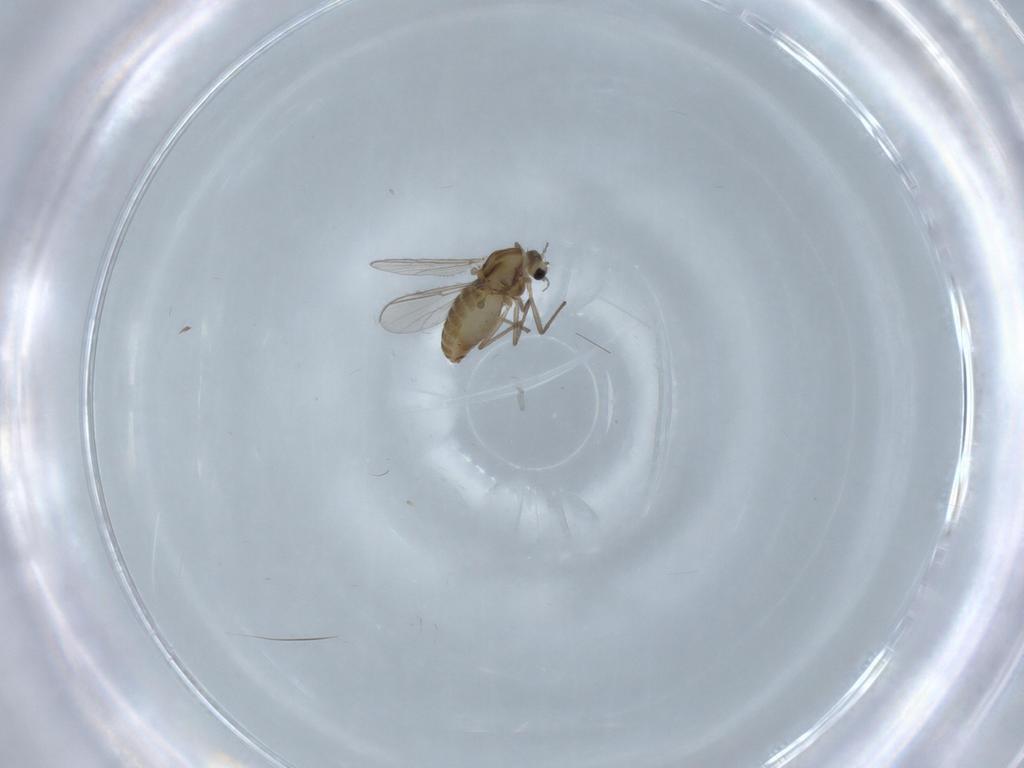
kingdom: Animalia
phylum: Arthropoda
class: Insecta
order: Diptera
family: Chironomidae
